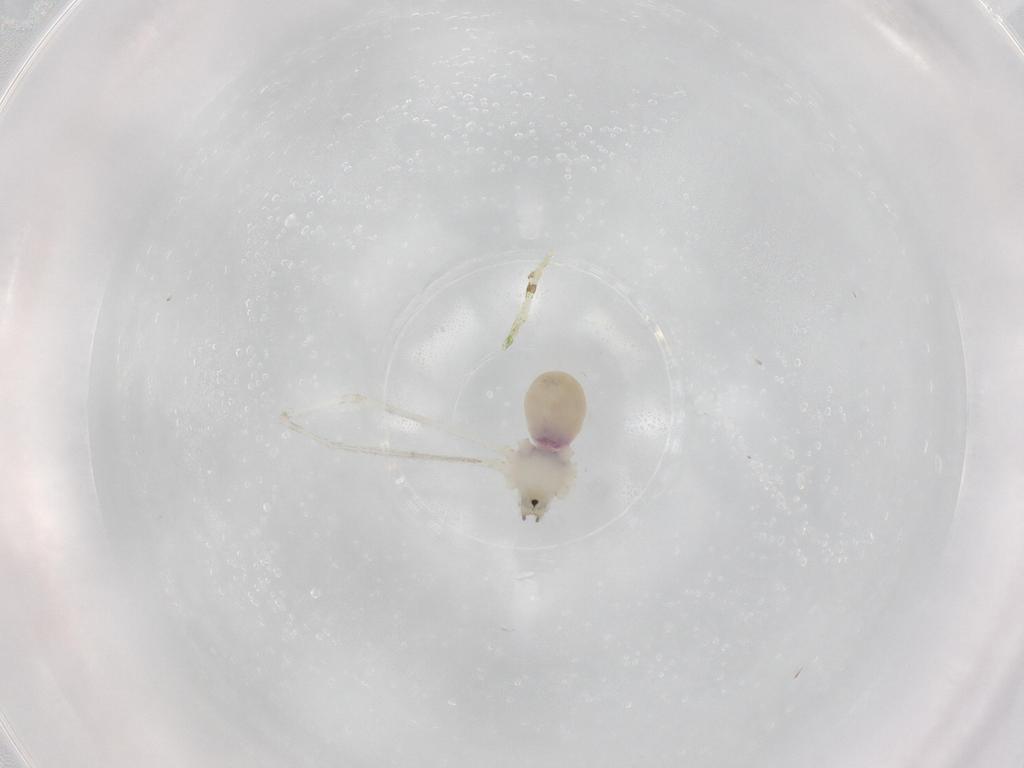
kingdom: Animalia
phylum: Arthropoda
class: Arachnida
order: Araneae
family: Pholcidae
